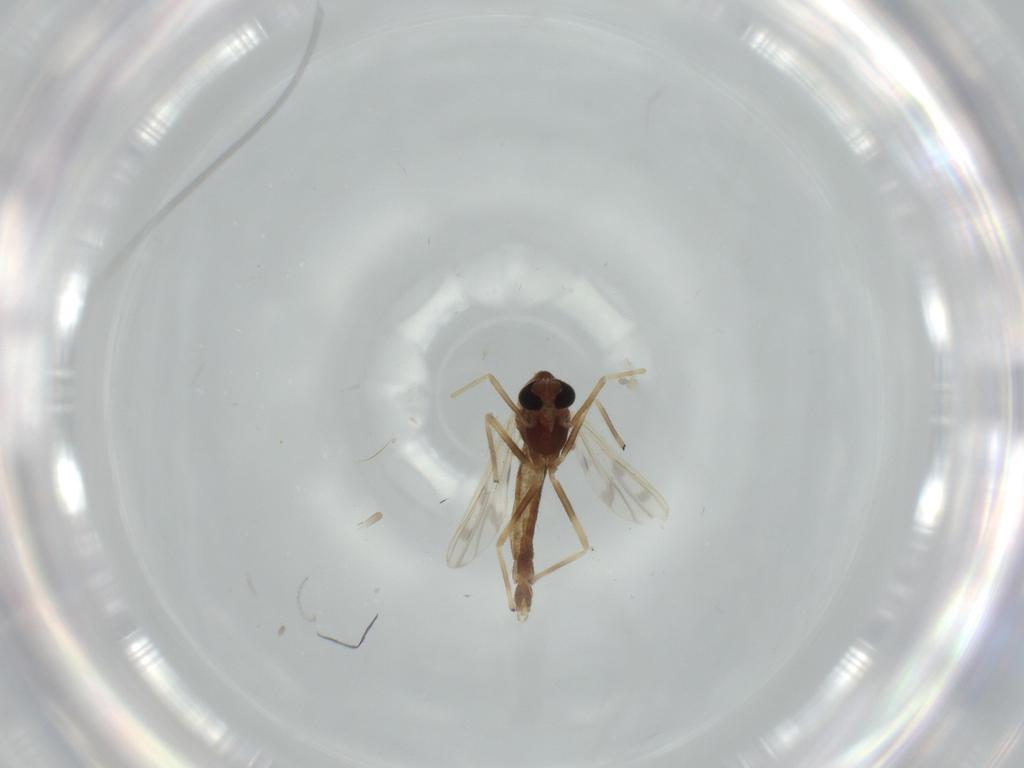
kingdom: Animalia
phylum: Arthropoda
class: Insecta
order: Diptera
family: Chironomidae
